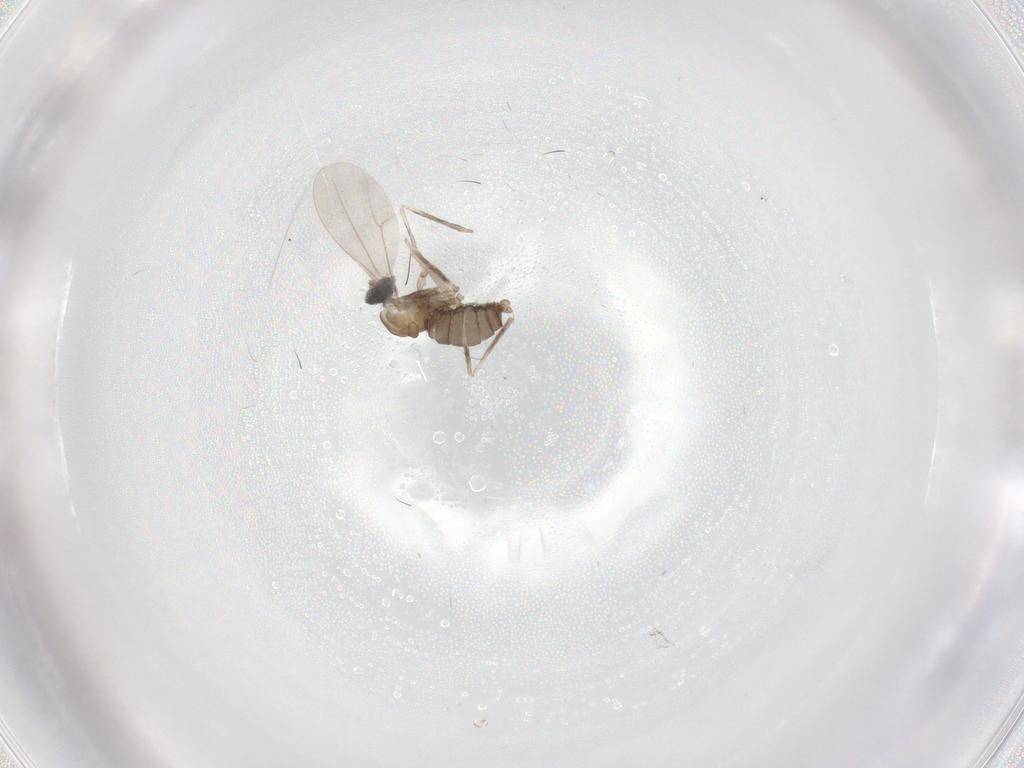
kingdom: Animalia
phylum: Arthropoda
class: Insecta
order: Diptera
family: Cecidomyiidae
